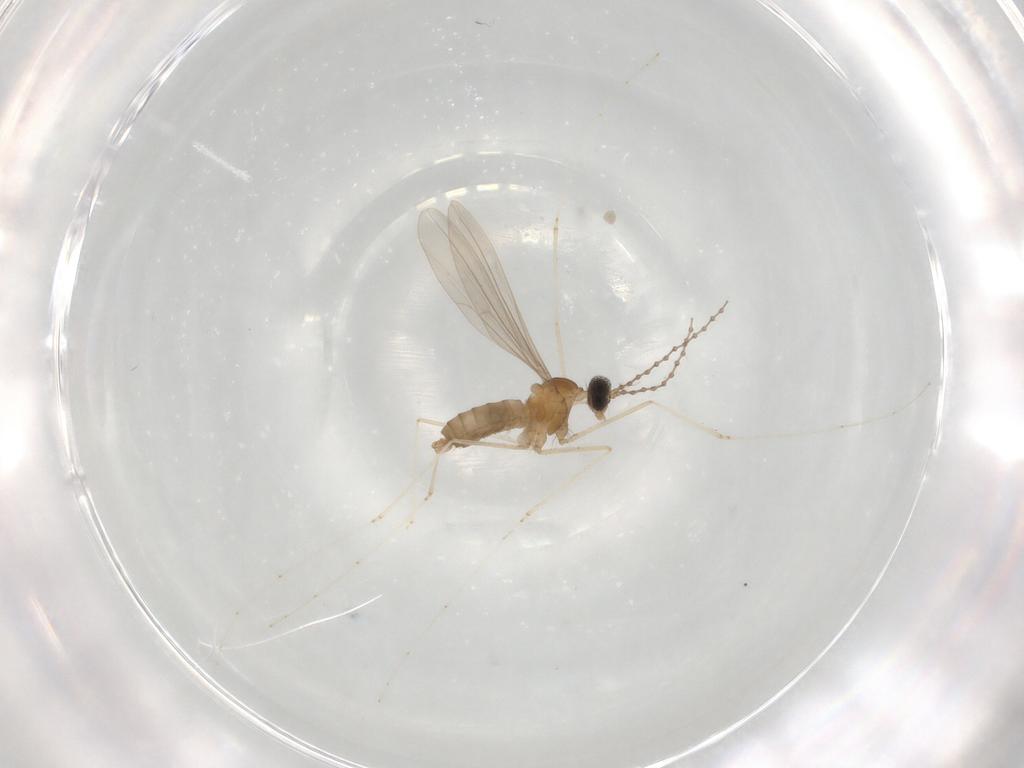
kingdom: Animalia
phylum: Arthropoda
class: Insecta
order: Diptera
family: Cecidomyiidae
